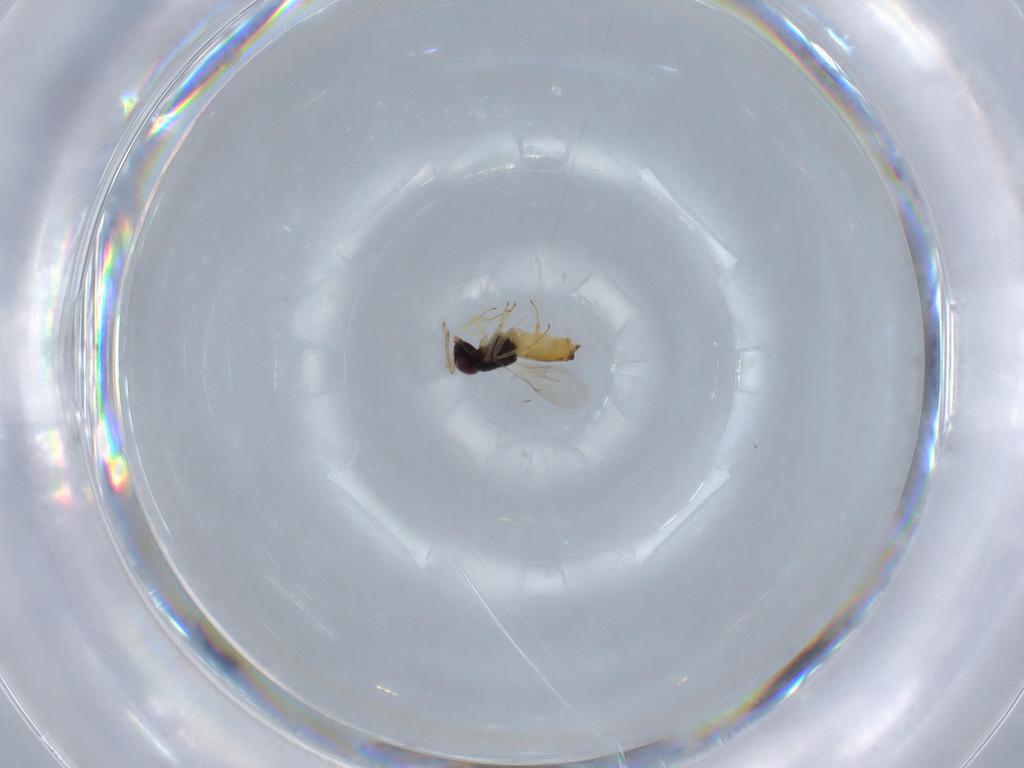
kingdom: Animalia
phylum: Arthropoda
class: Insecta
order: Hymenoptera
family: Encyrtidae
